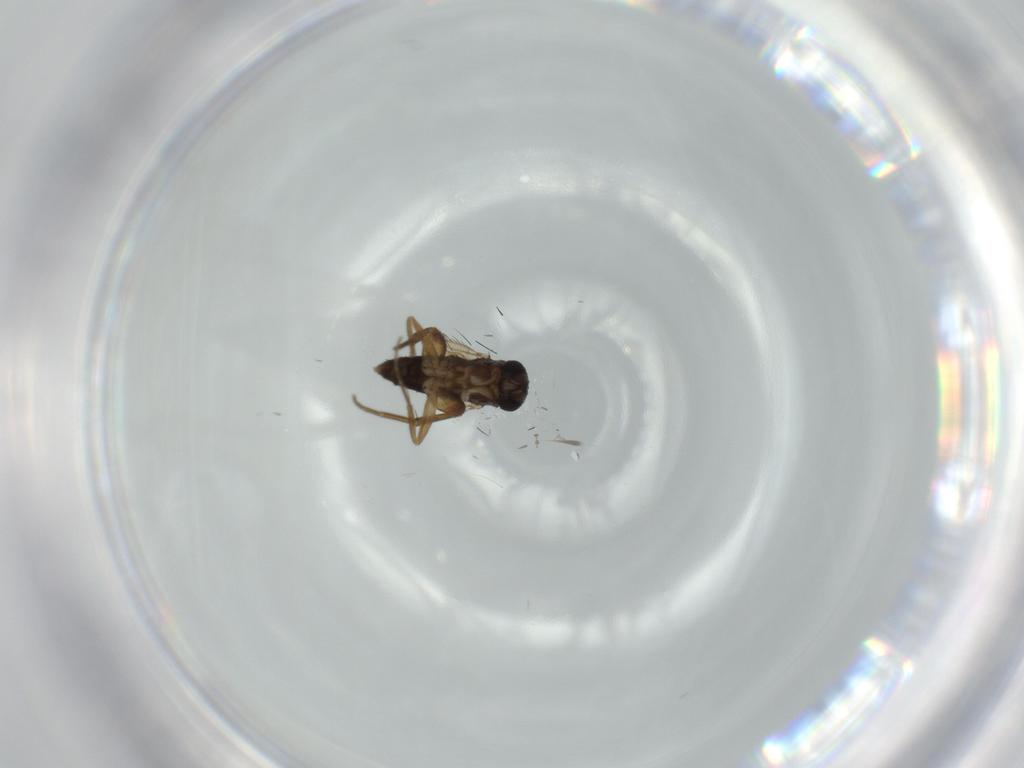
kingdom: Animalia
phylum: Arthropoda
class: Insecta
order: Diptera
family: Phoridae
